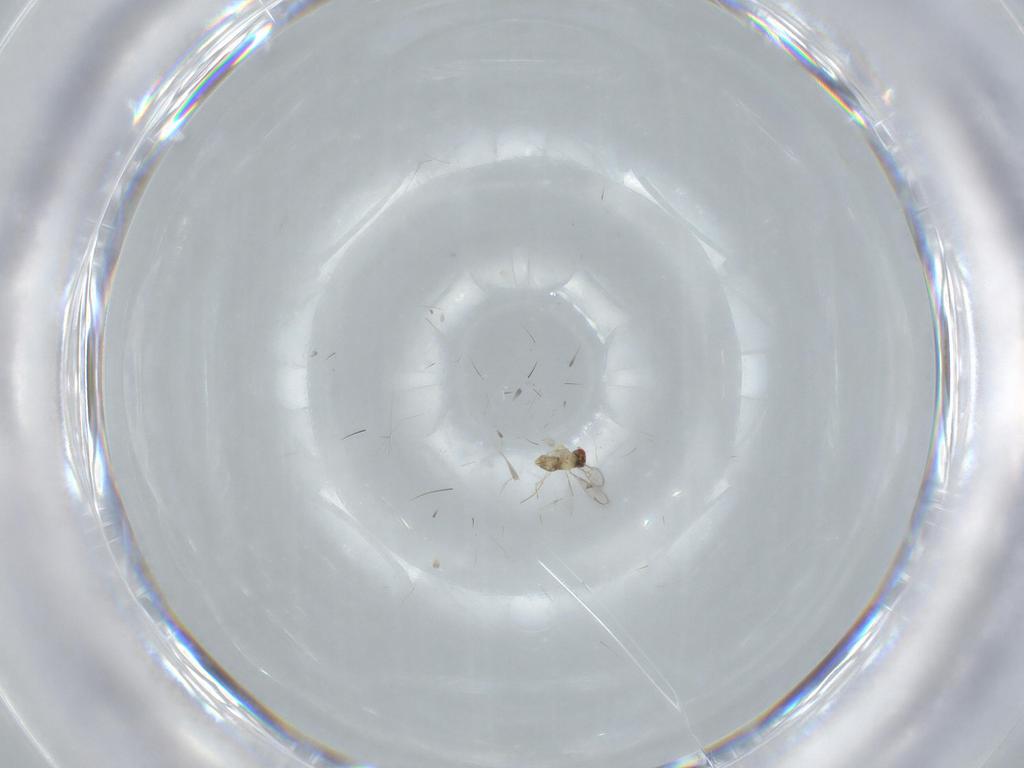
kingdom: Animalia
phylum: Arthropoda
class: Insecta
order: Hymenoptera
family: Aphelinidae
